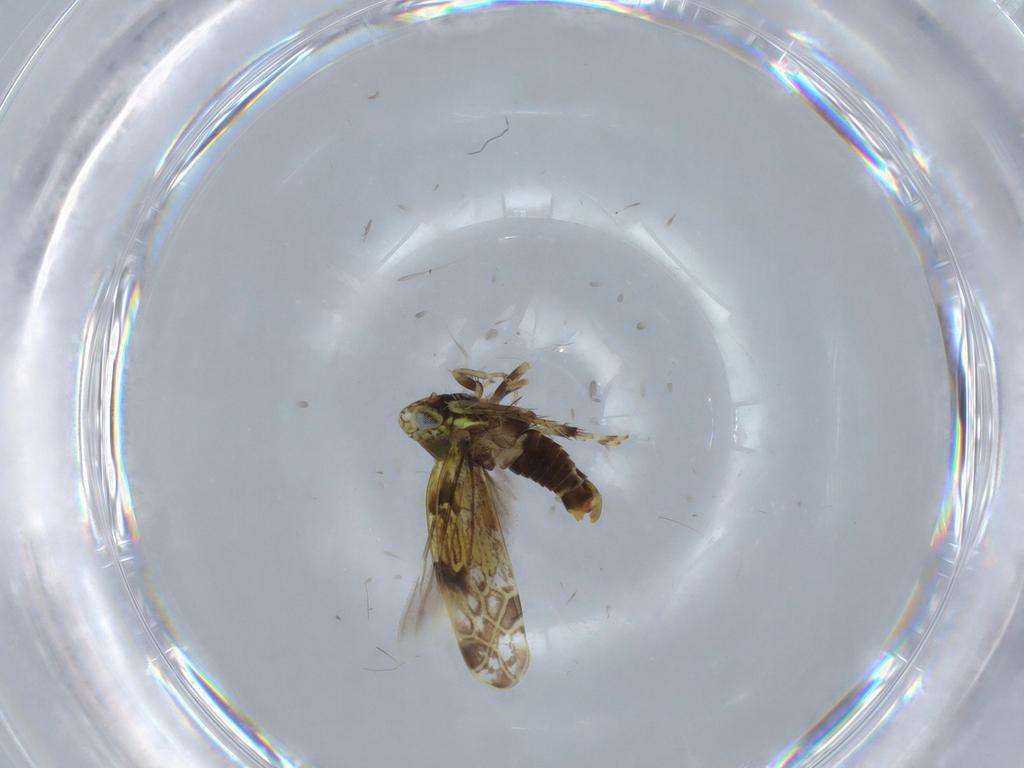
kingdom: Animalia
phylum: Arthropoda
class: Insecta
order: Hemiptera
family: Cicadellidae
